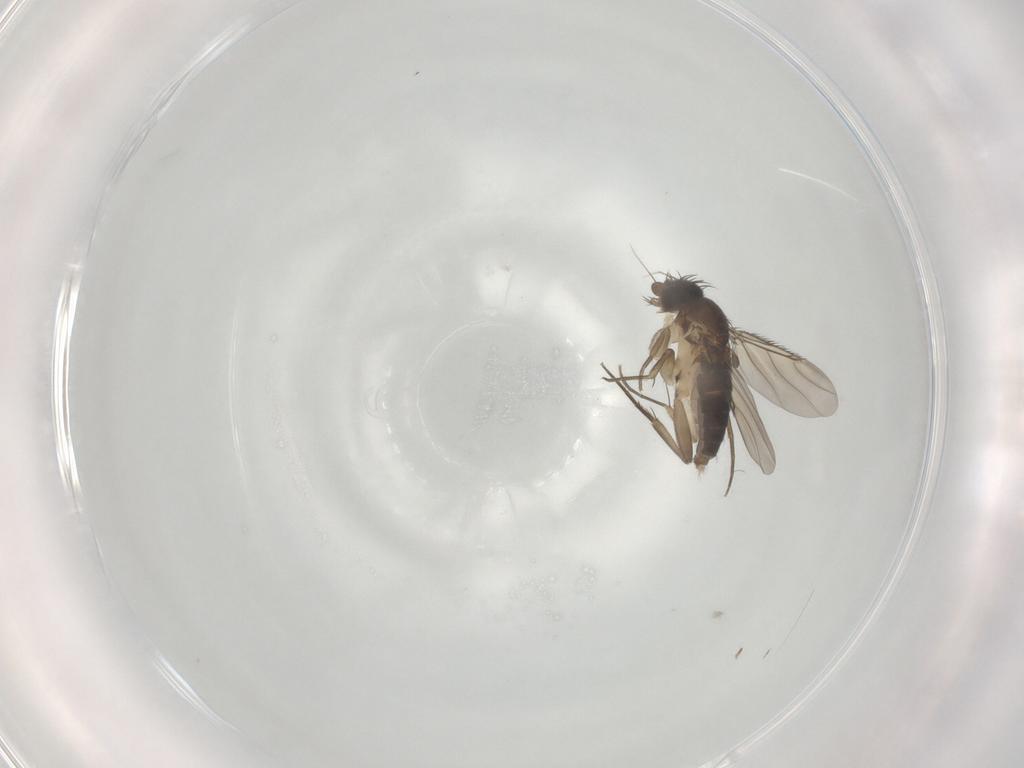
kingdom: Animalia
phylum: Arthropoda
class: Insecta
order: Diptera
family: Phoridae
